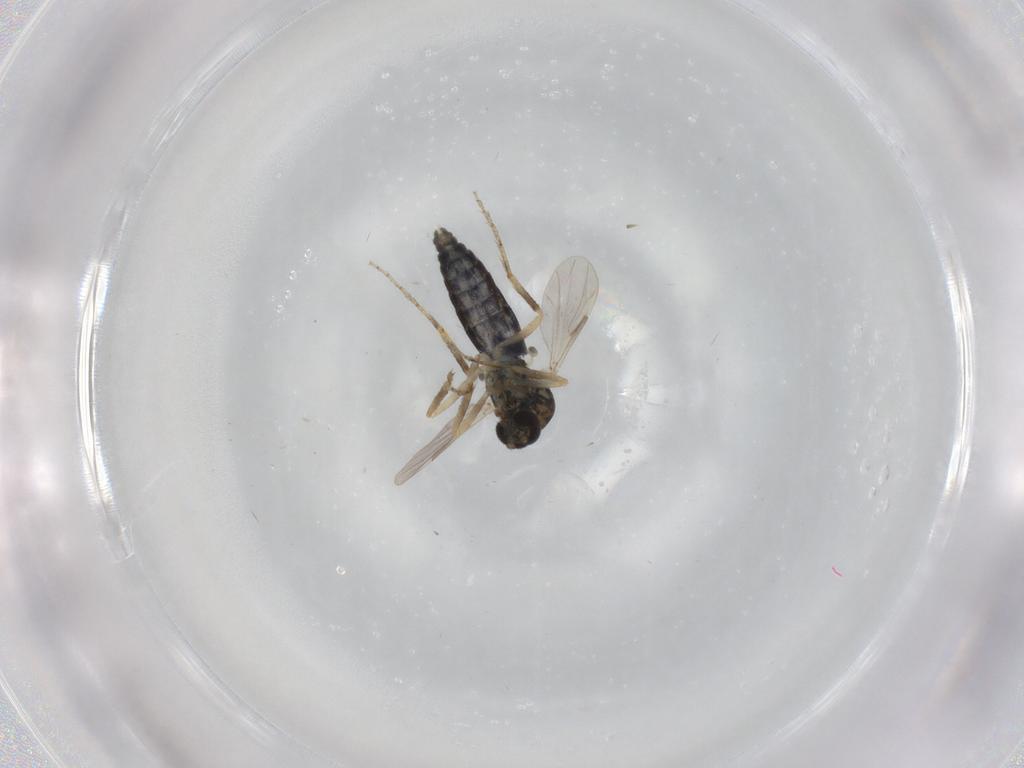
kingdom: Animalia
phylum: Arthropoda
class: Insecta
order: Diptera
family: Ceratopogonidae
